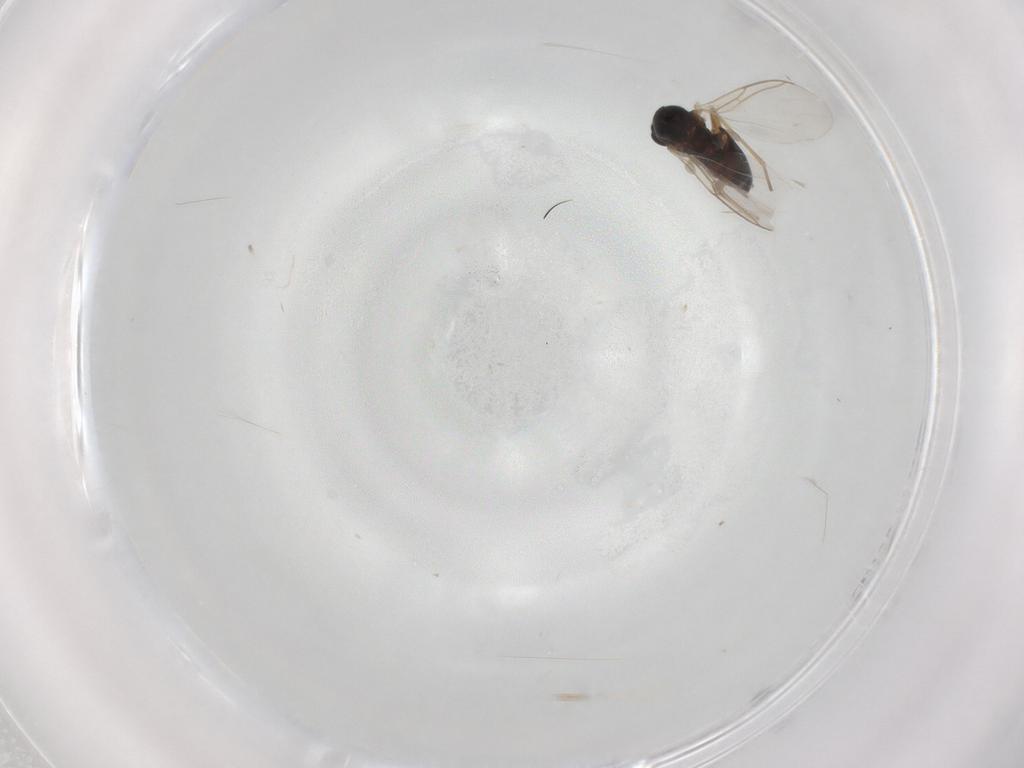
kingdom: Animalia
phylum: Arthropoda
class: Insecta
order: Diptera
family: Sciaridae
